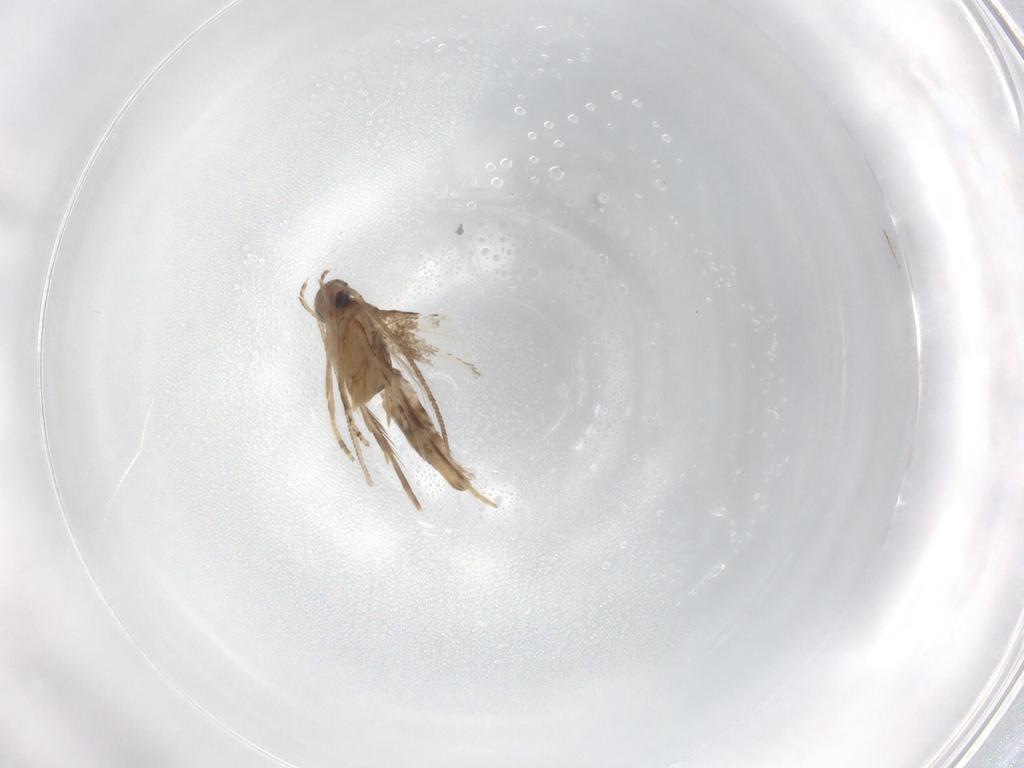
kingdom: Animalia
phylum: Arthropoda
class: Insecta
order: Lepidoptera
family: Elachistidae
